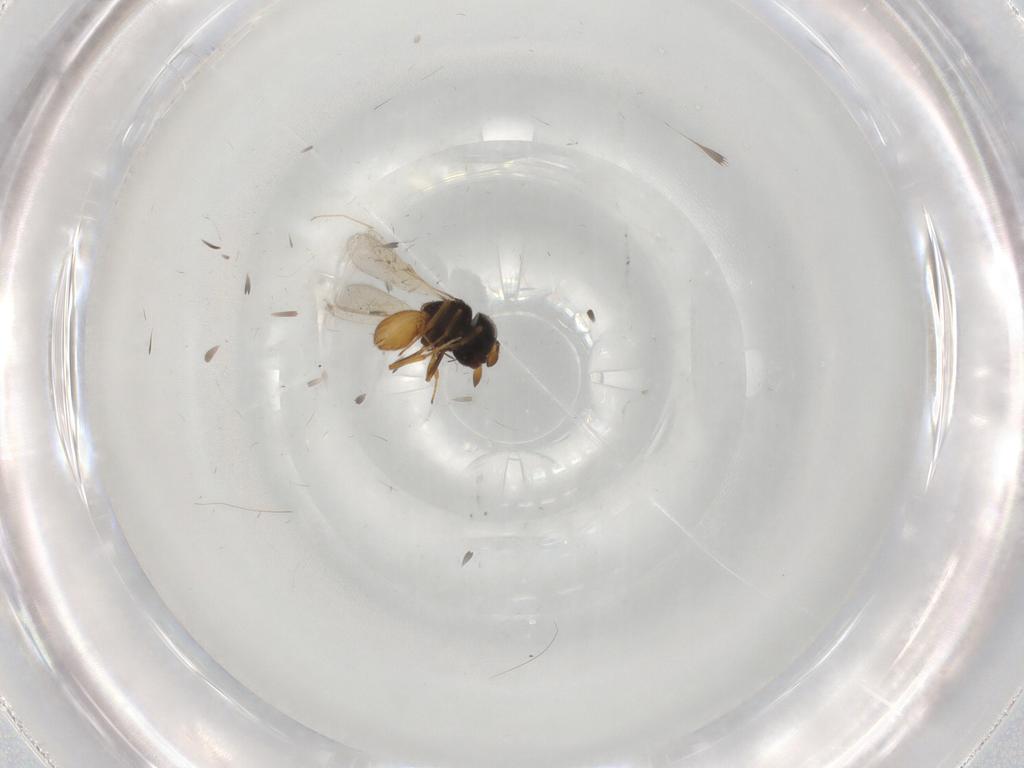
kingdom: Animalia
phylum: Arthropoda
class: Insecta
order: Hymenoptera
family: Scelionidae
